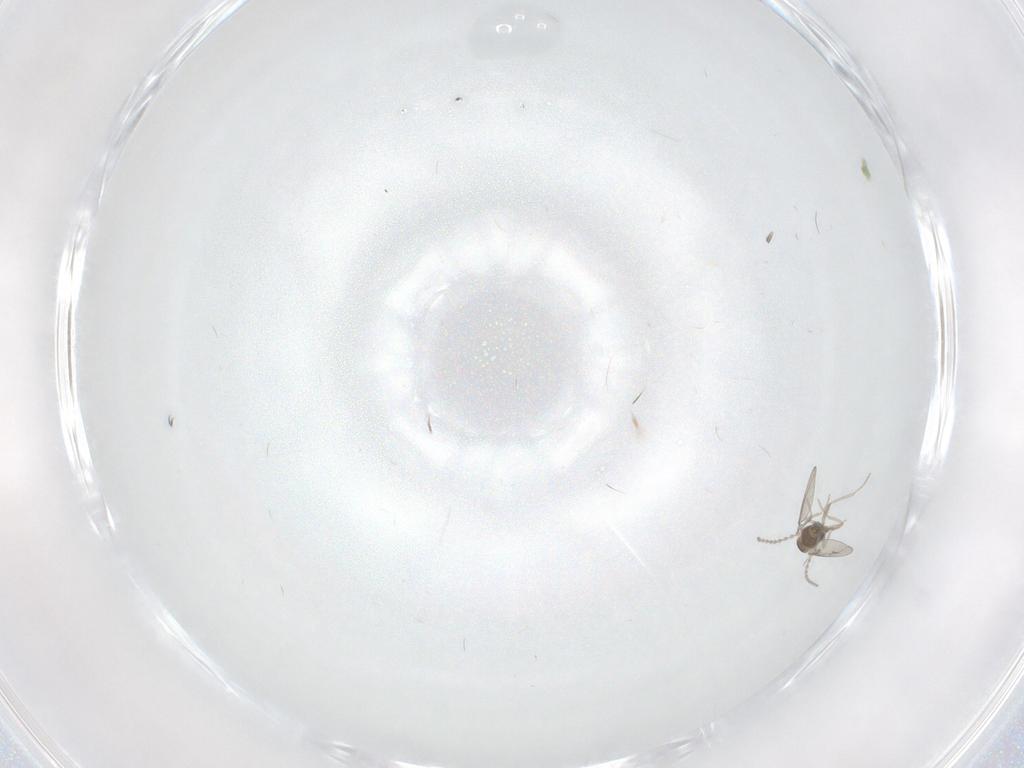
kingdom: Animalia
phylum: Arthropoda
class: Insecta
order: Diptera
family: Cecidomyiidae
